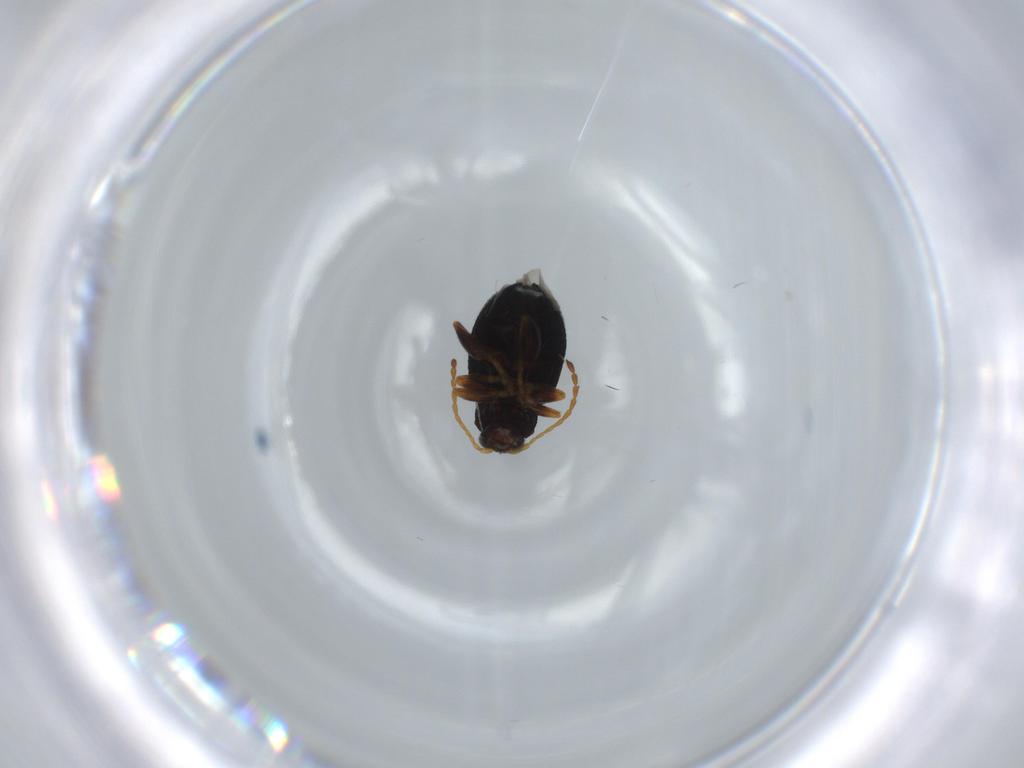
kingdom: Animalia
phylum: Arthropoda
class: Insecta
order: Coleoptera
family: Chrysomelidae
